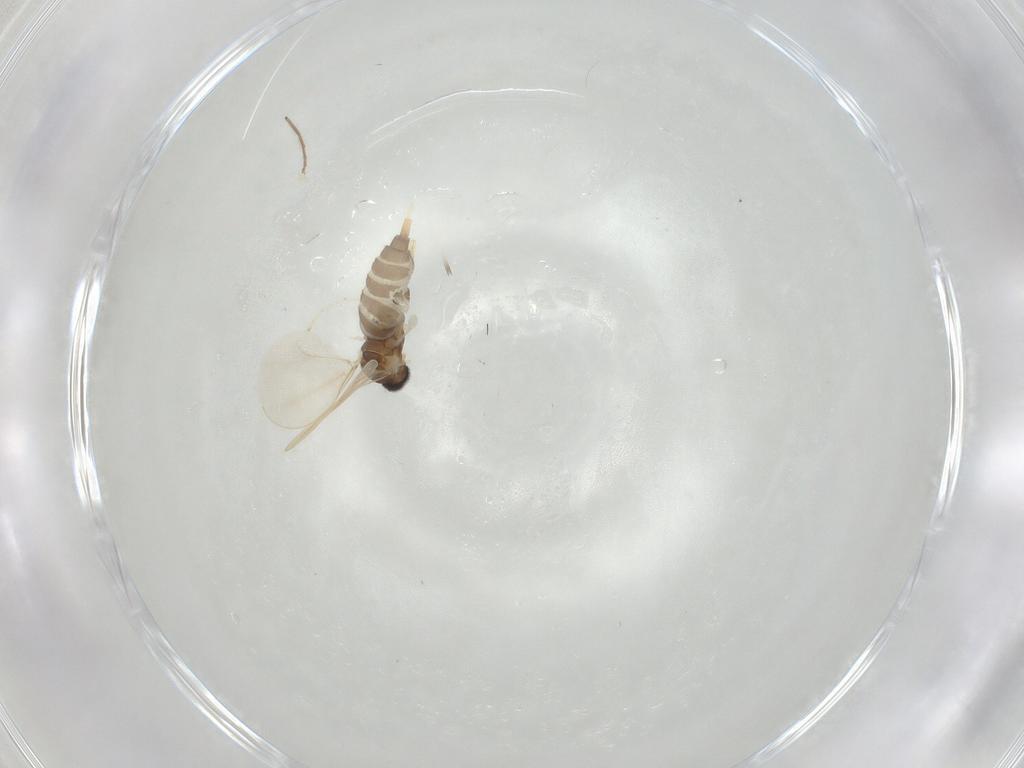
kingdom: Animalia
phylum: Arthropoda
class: Insecta
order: Diptera
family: Cecidomyiidae
